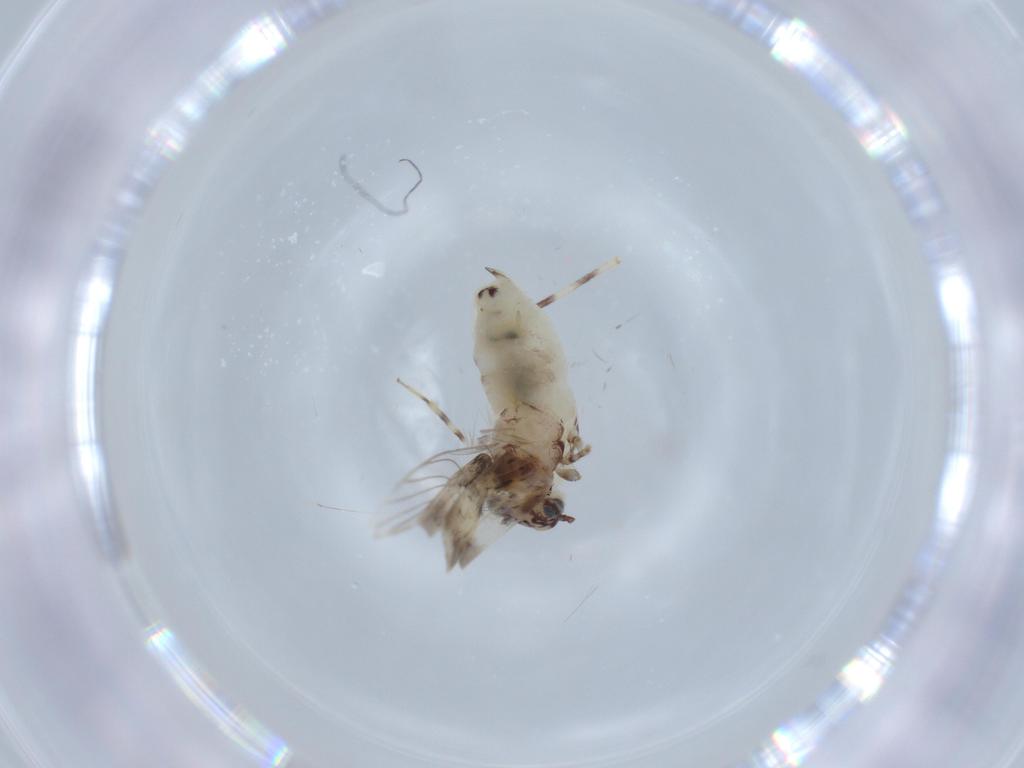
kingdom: Animalia
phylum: Arthropoda
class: Insecta
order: Psocodea
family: Lepidopsocidae
